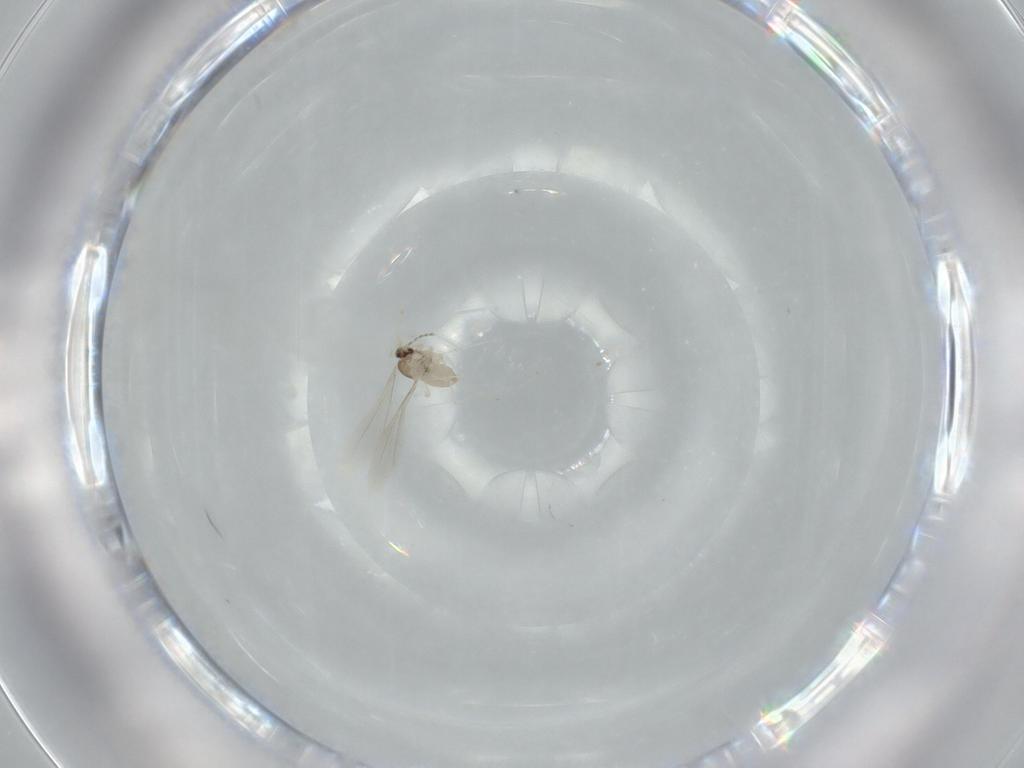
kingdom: Animalia
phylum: Arthropoda
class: Insecta
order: Diptera
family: Cecidomyiidae
